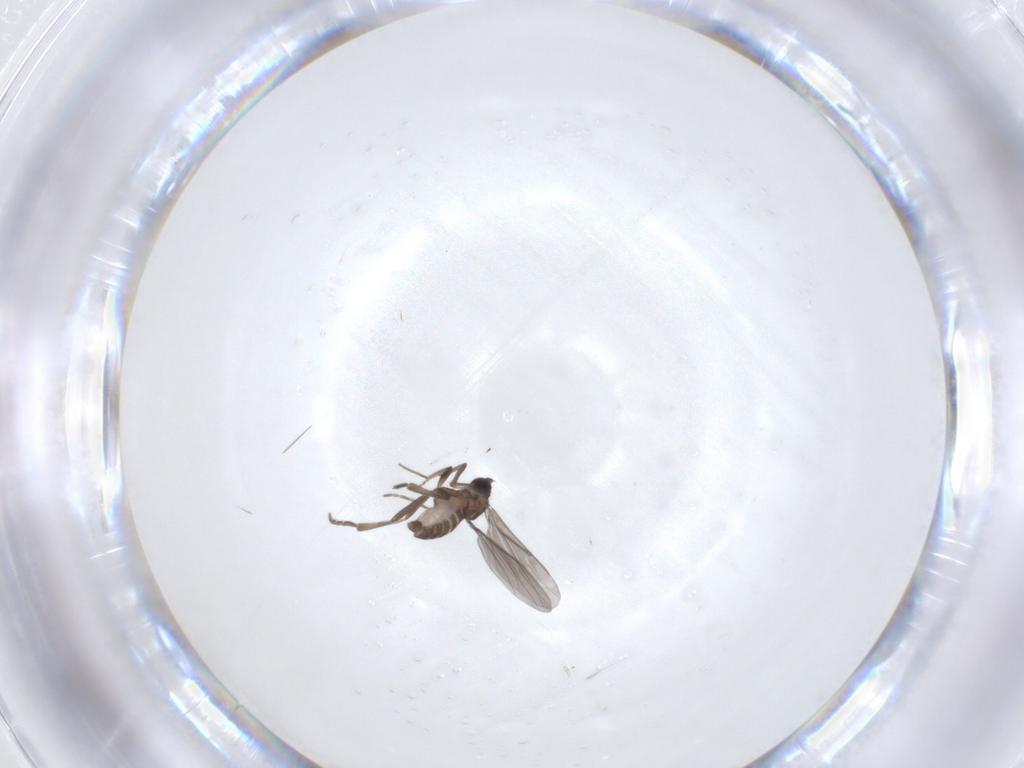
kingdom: Animalia
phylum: Arthropoda
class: Insecta
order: Diptera
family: Phoridae
